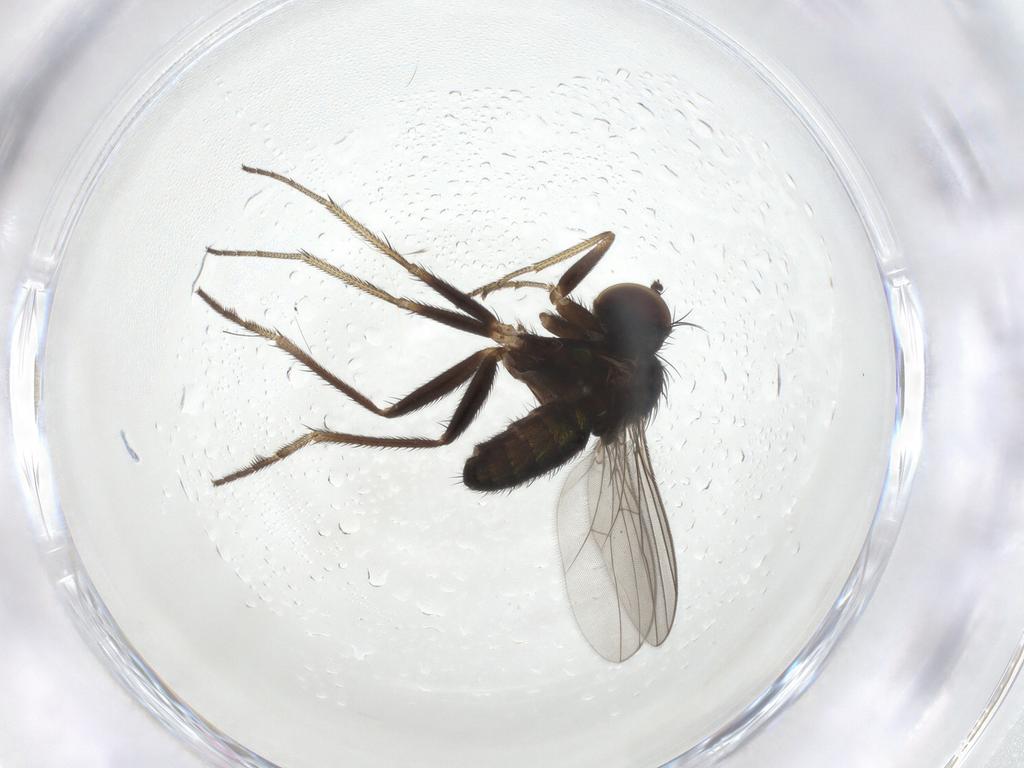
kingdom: Animalia
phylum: Arthropoda
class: Insecta
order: Diptera
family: Dolichopodidae
